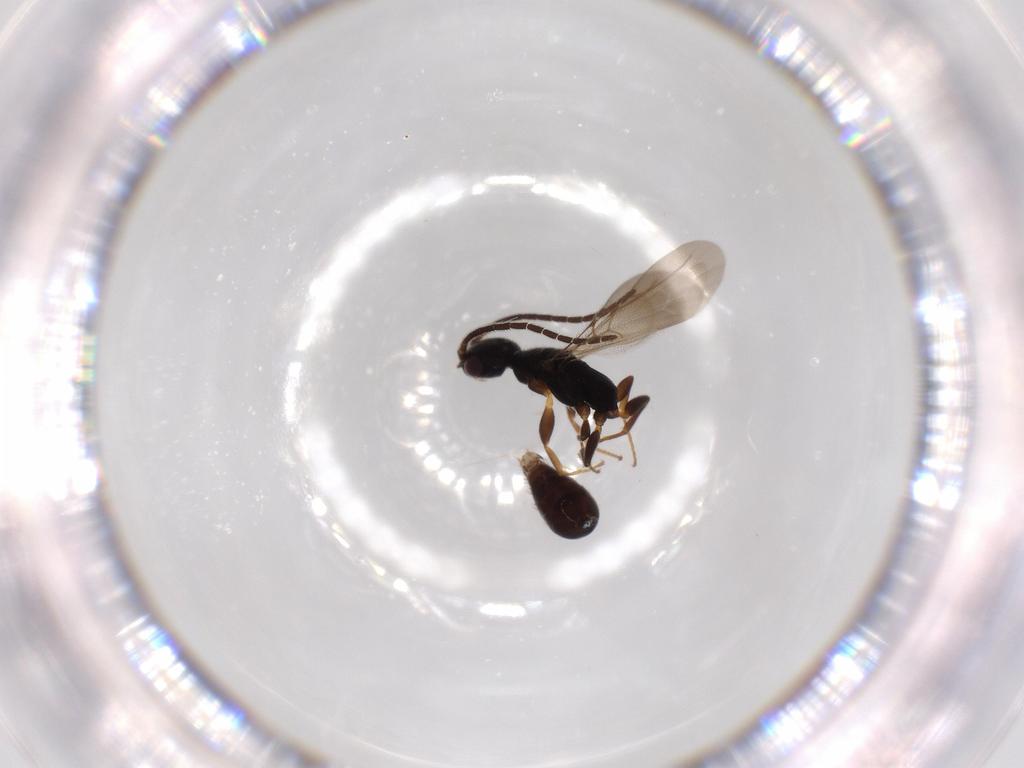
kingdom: Animalia
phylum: Arthropoda
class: Insecta
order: Hymenoptera
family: Bethylidae
